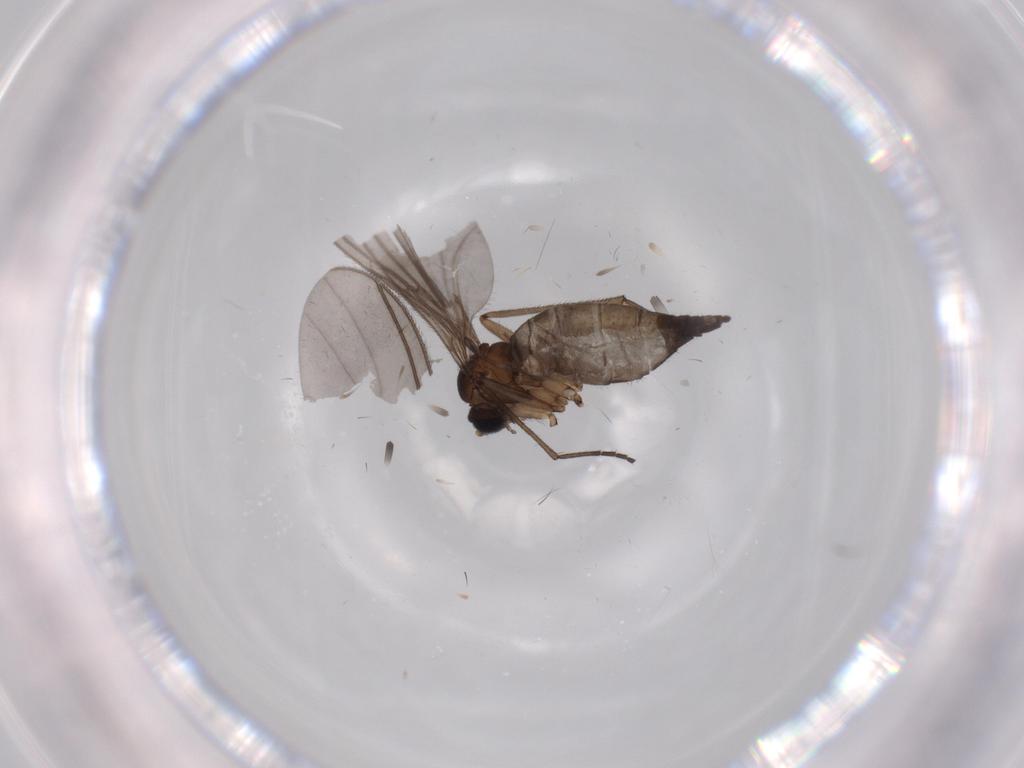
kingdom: Animalia
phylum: Arthropoda
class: Insecta
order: Diptera
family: Sciaridae
